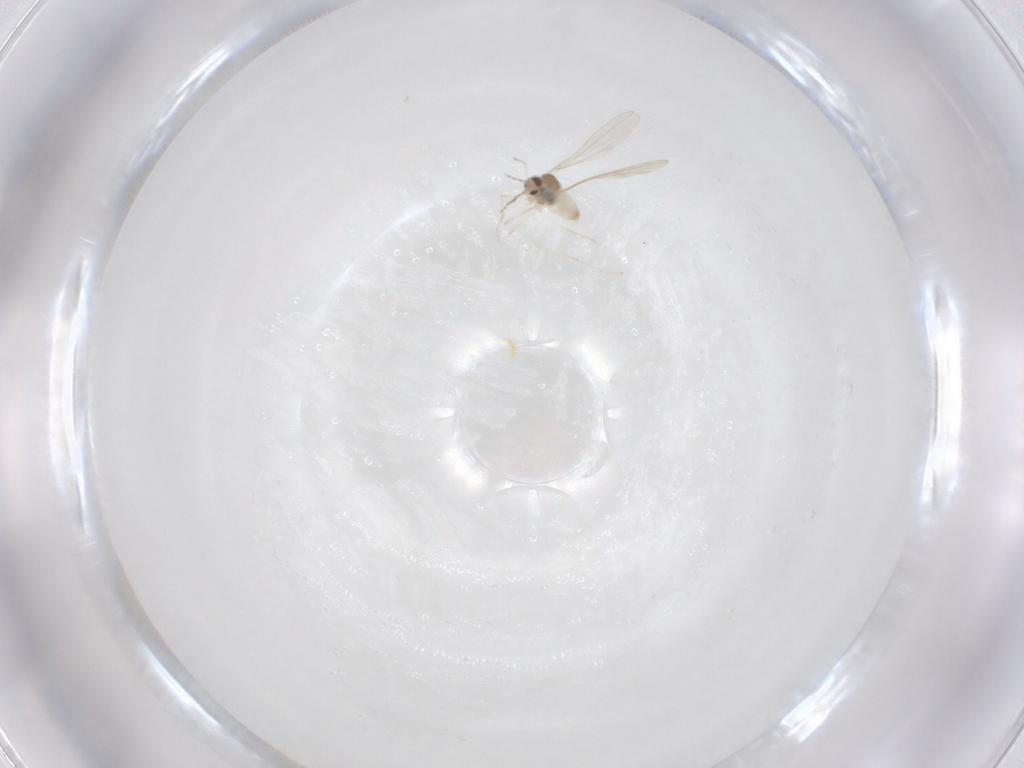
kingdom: Animalia
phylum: Arthropoda
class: Insecta
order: Diptera
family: Cecidomyiidae
